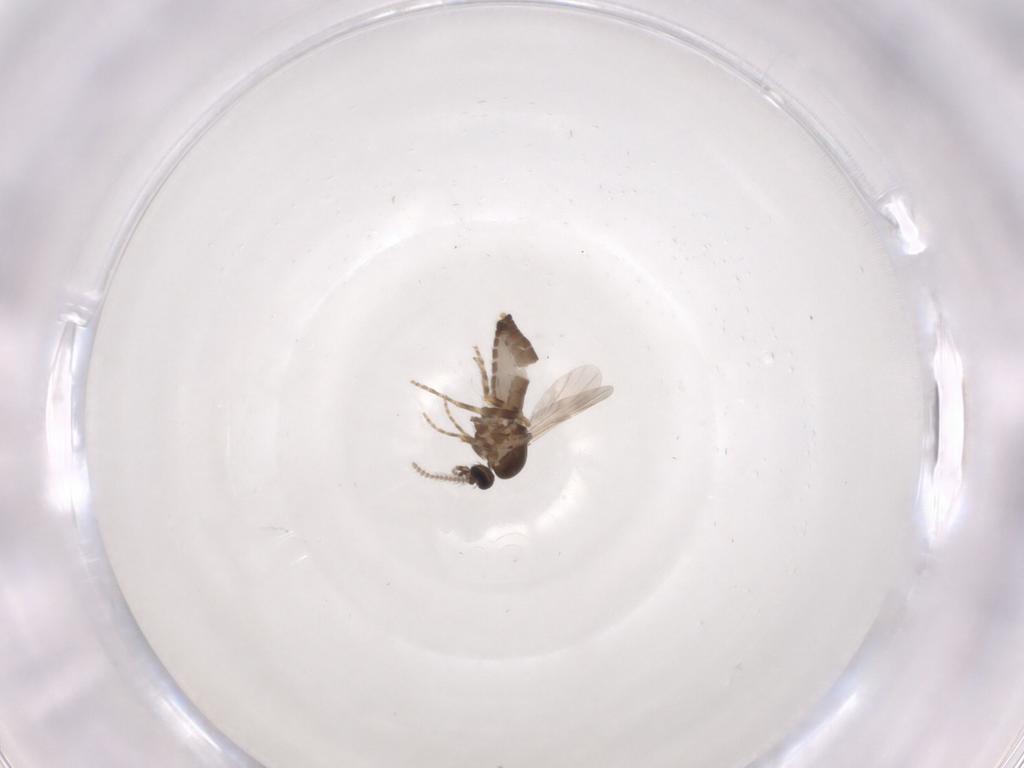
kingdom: Animalia
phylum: Arthropoda
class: Insecta
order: Diptera
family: Ceratopogonidae
